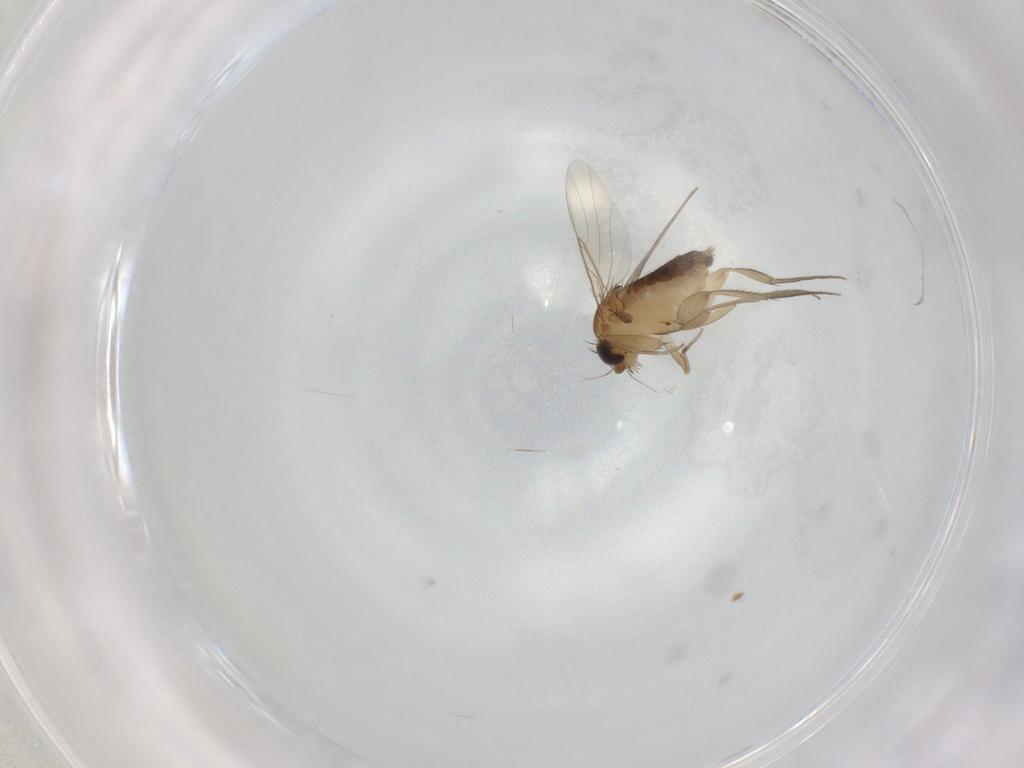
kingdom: Animalia
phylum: Arthropoda
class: Insecta
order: Diptera
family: Phoridae
